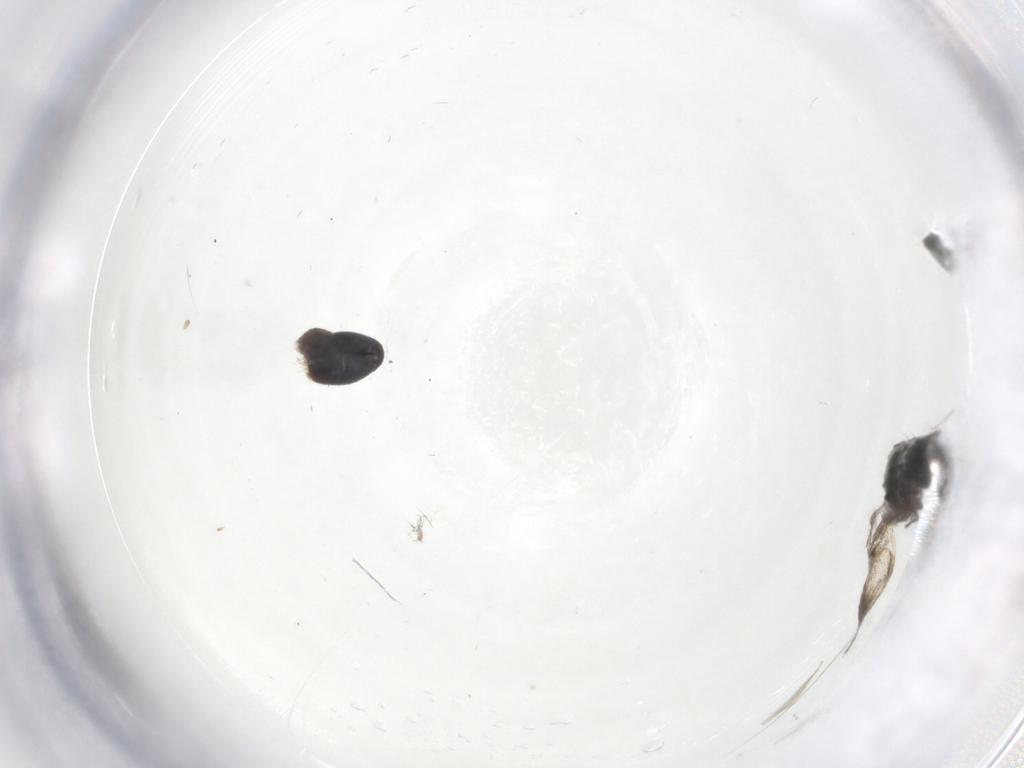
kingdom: Animalia
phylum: Arthropoda
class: Insecta
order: Diptera
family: Sciaridae
